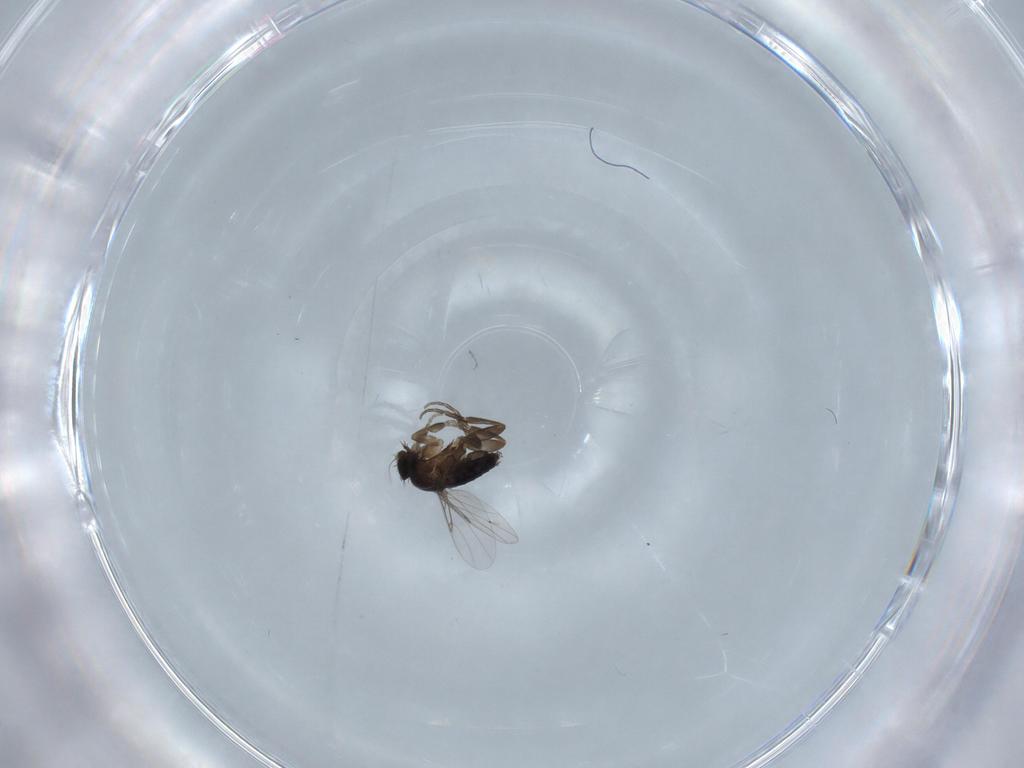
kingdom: Animalia
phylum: Arthropoda
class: Insecta
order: Diptera
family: Phoridae
